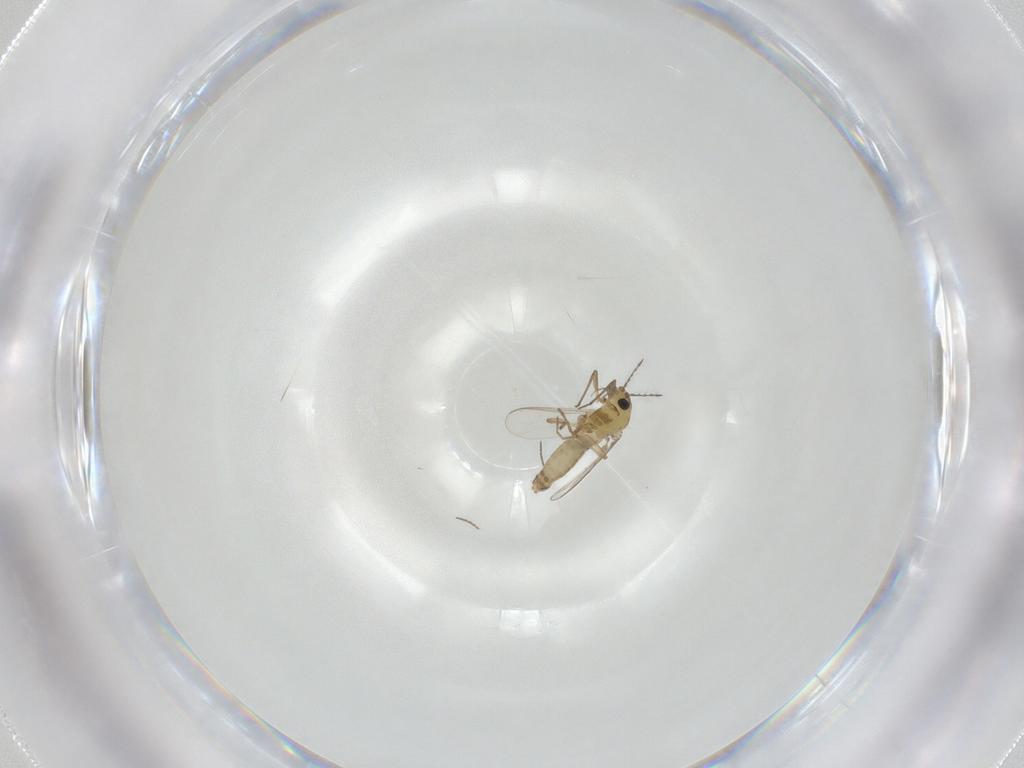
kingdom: Animalia
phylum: Arthropoda
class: Insecta
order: Diptera
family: Chironomidae
